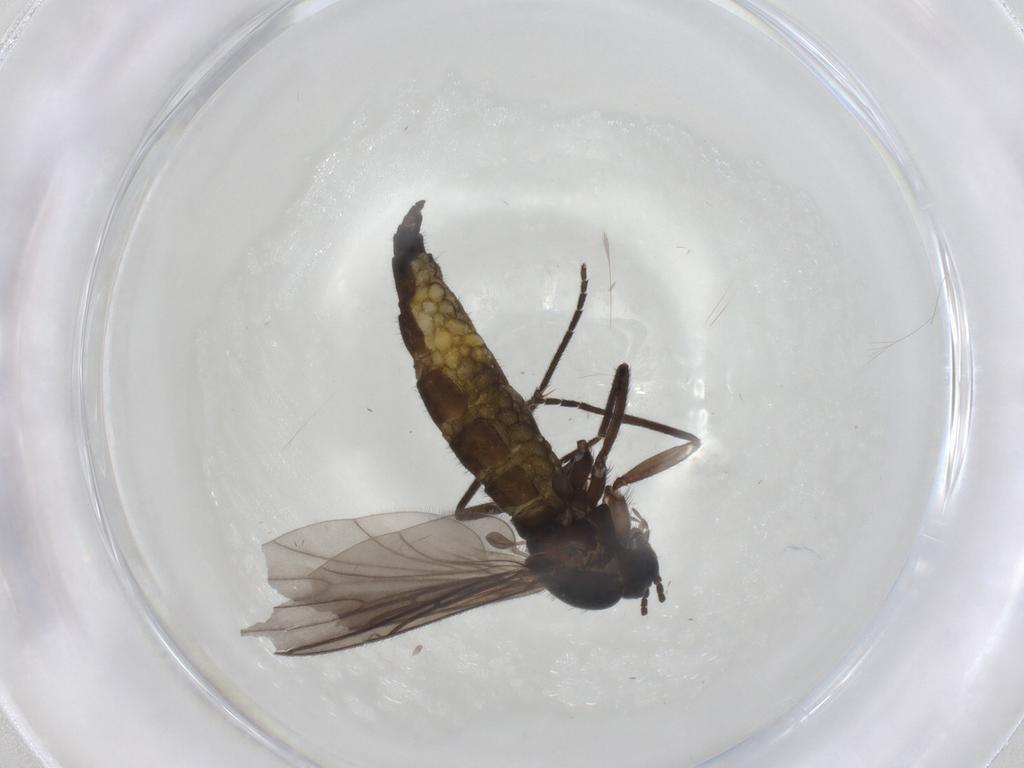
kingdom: Animalia
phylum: Arthropoda
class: Insecta
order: Diptera
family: Sciaridae
